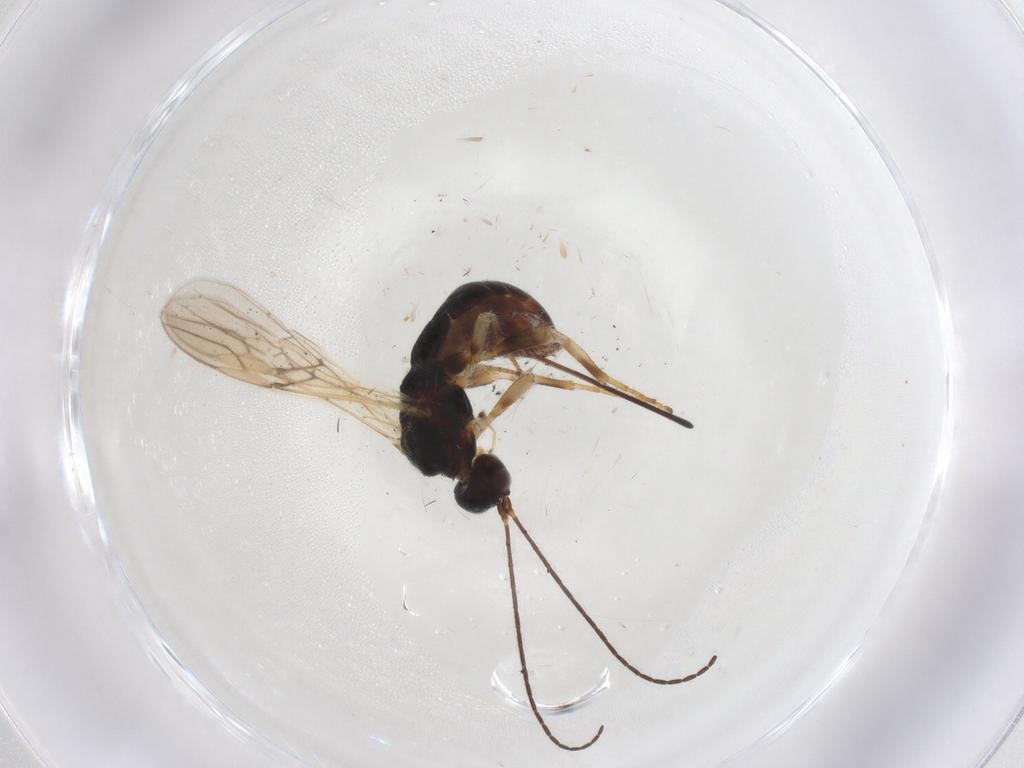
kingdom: Animalia
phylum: Arthropoda
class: Insecta
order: Hymenoptera
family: Braconidae
